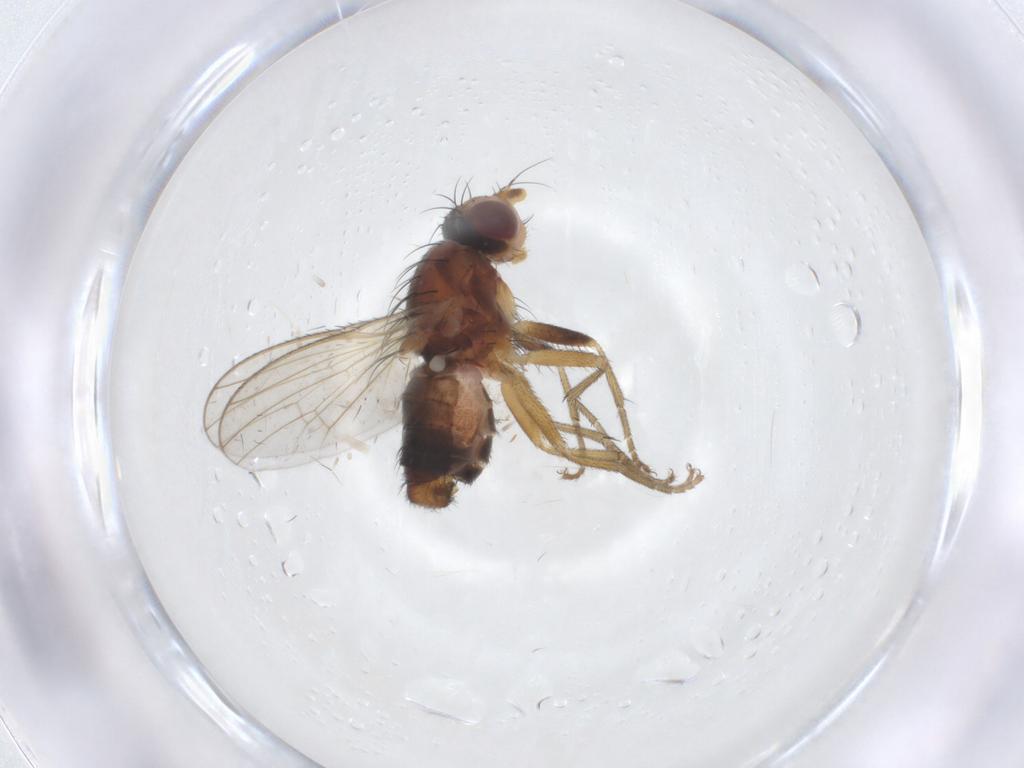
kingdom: Animalia
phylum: Arthropoda
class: Insecta
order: Diptera
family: Heleomyzidae
